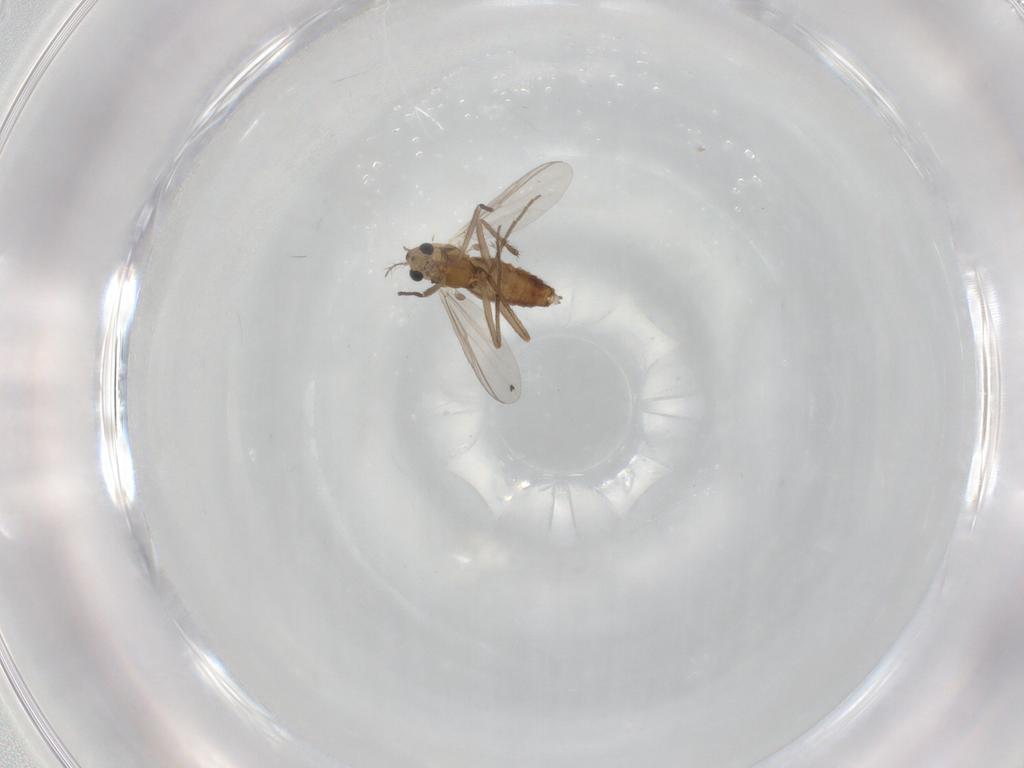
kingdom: Animalia
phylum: Arthropoda
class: Insecta
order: Diptera
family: Chironomidae
